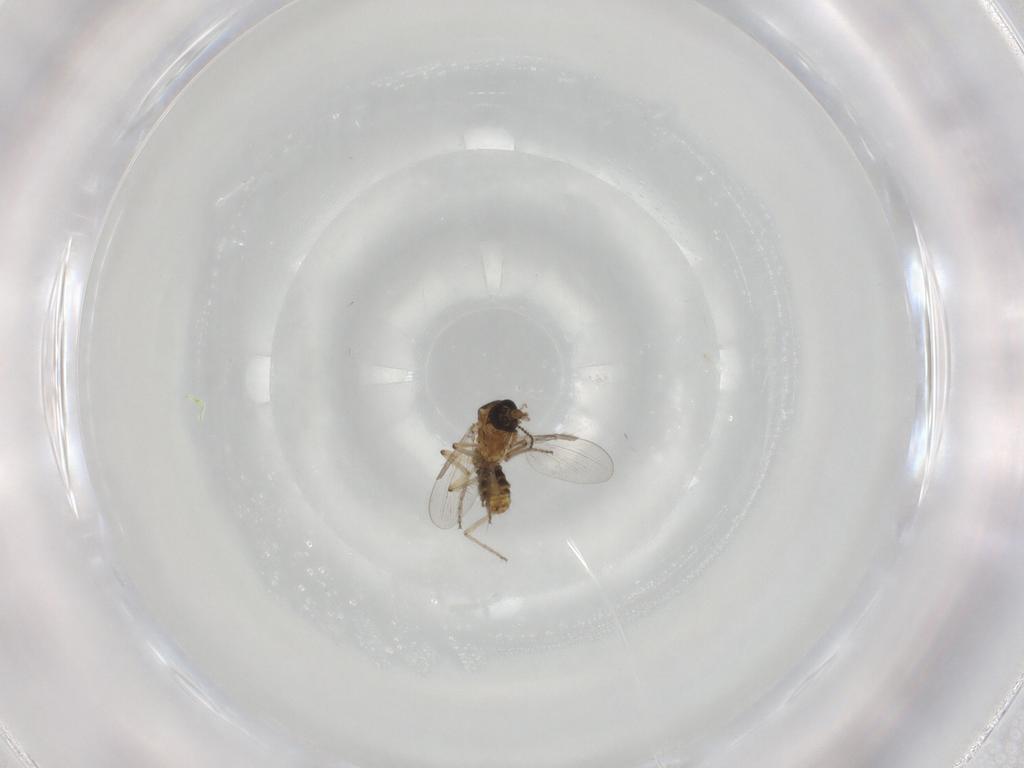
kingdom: Animalia
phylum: Arthropoda
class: Insecta
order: Diptera
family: Ceratopogonidae
